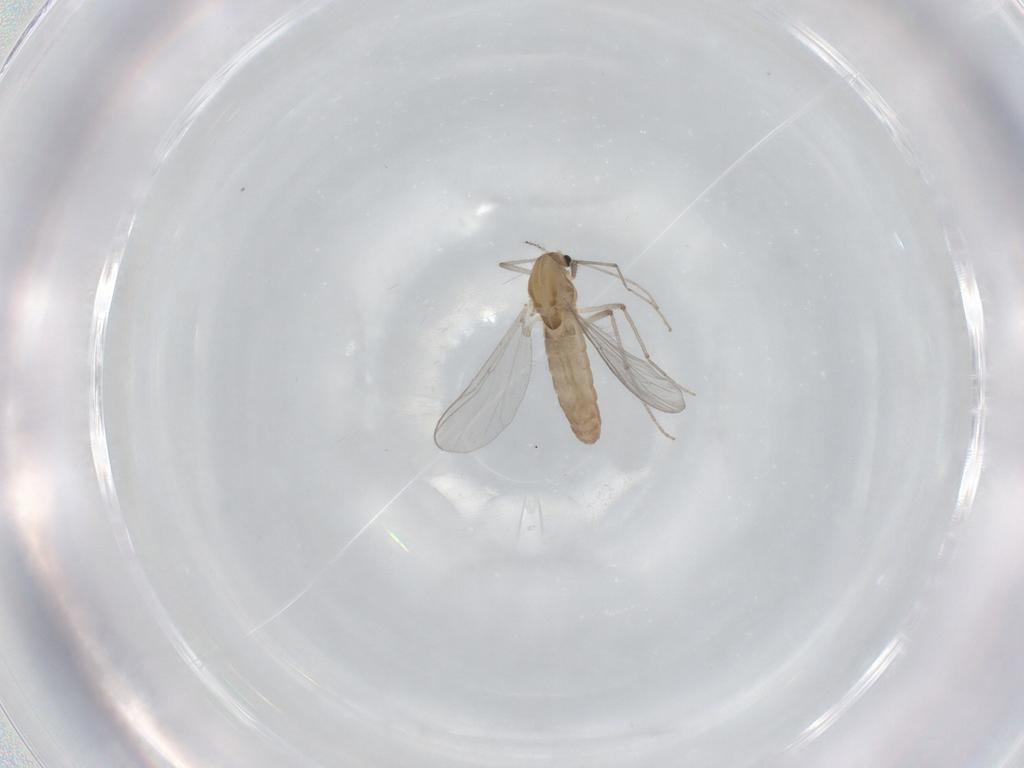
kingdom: Animalia
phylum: Arthropoda
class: Insecta
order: Diptera
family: Chironomidae
